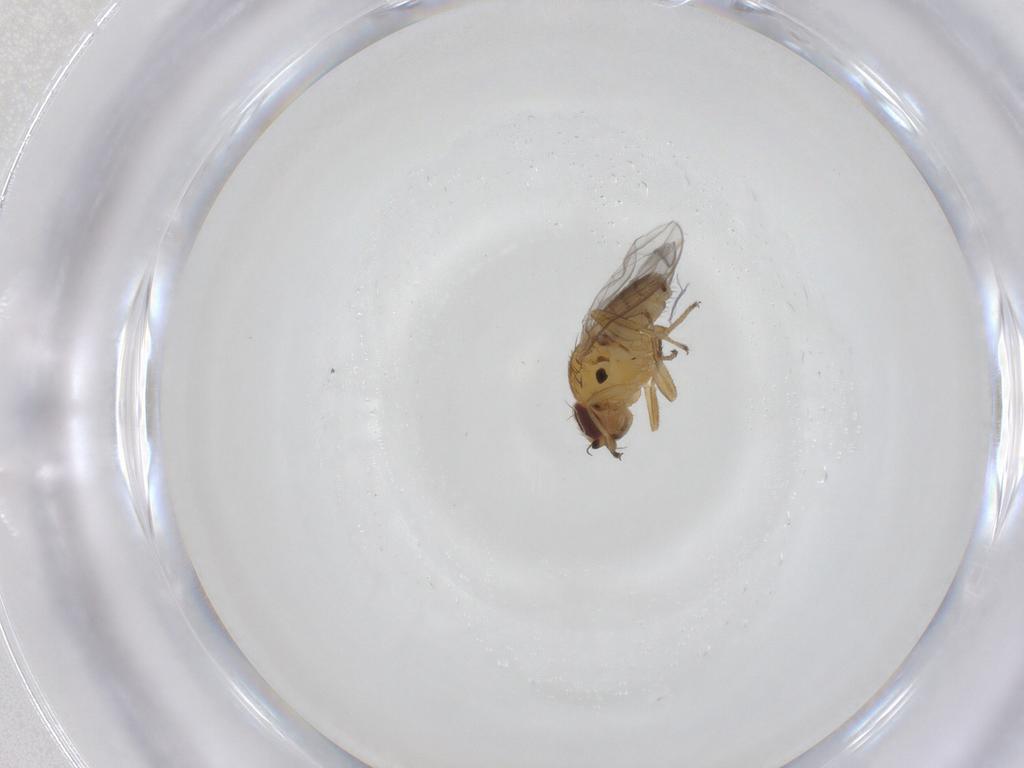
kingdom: Animalia
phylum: Arthropoda
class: Insecta
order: Diptera
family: Chloropidae
